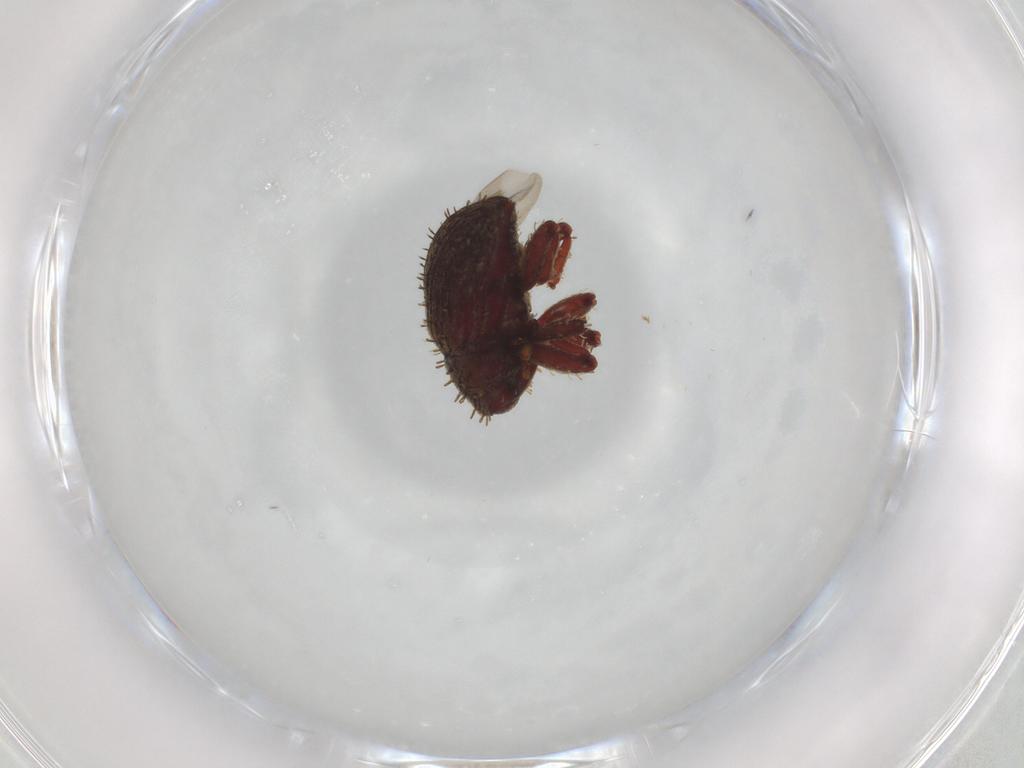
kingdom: Animalia
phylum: Arthropoda
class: Insecta
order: Coleoptera
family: Curculionidae
